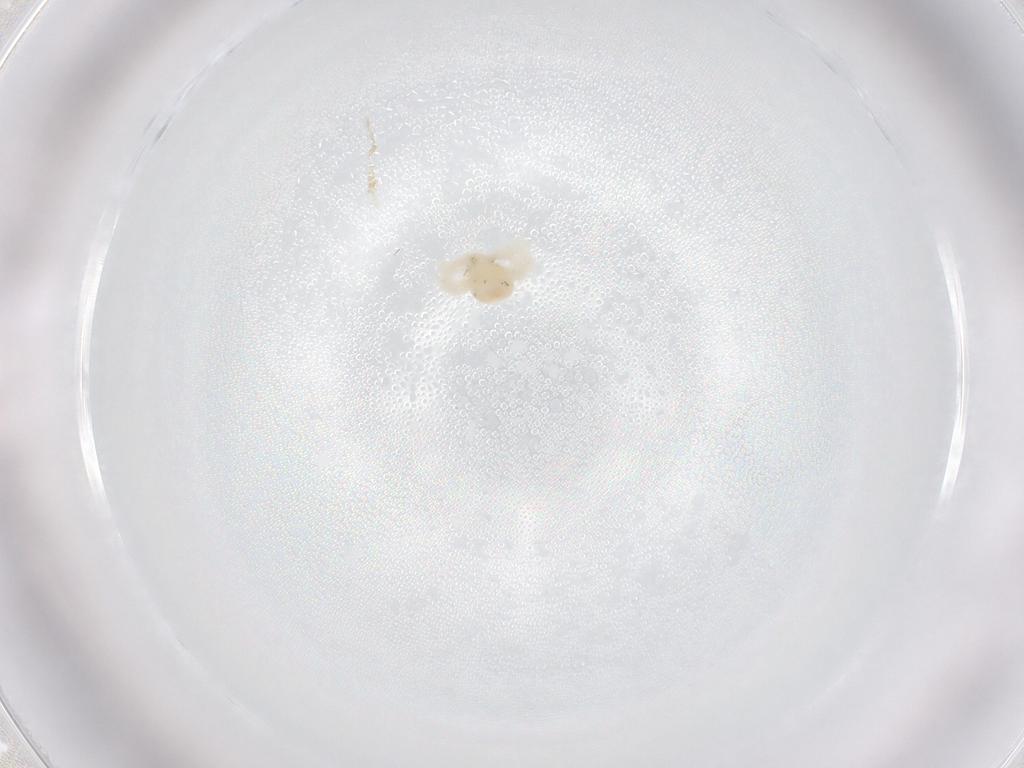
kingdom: Animalia
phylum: Arthropoda
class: Arachnida
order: Trombidiformes
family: Anystidae
